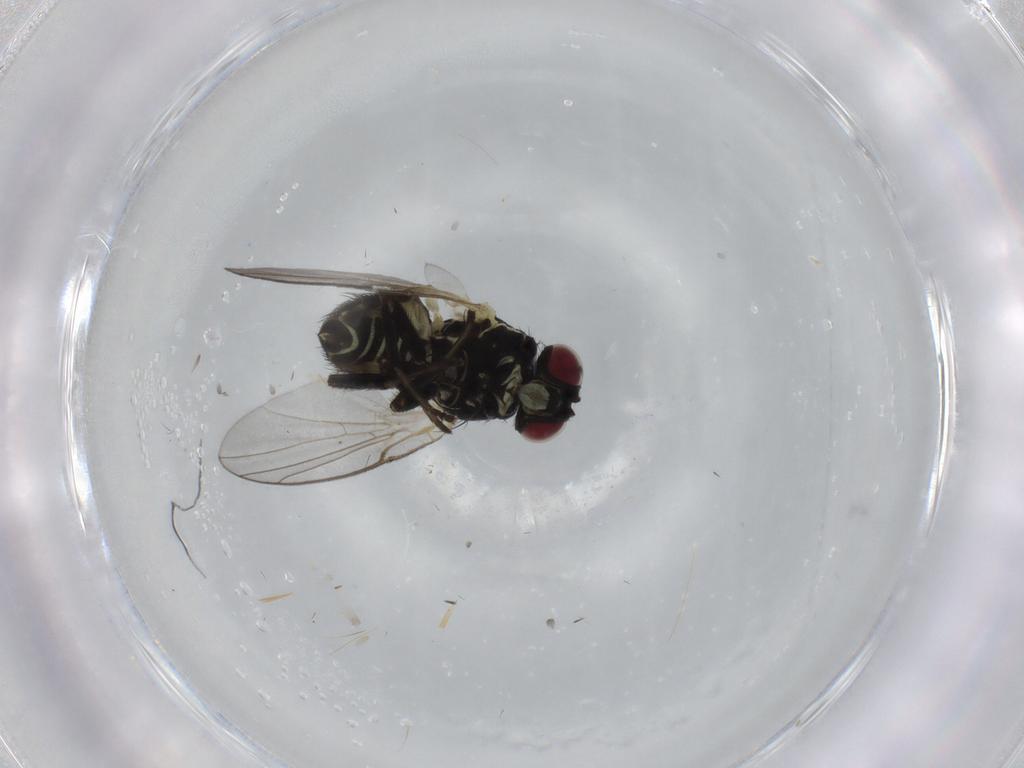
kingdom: Animalia
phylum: Arthropoda
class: Insecta
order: Diptera
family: Agromyzidae
